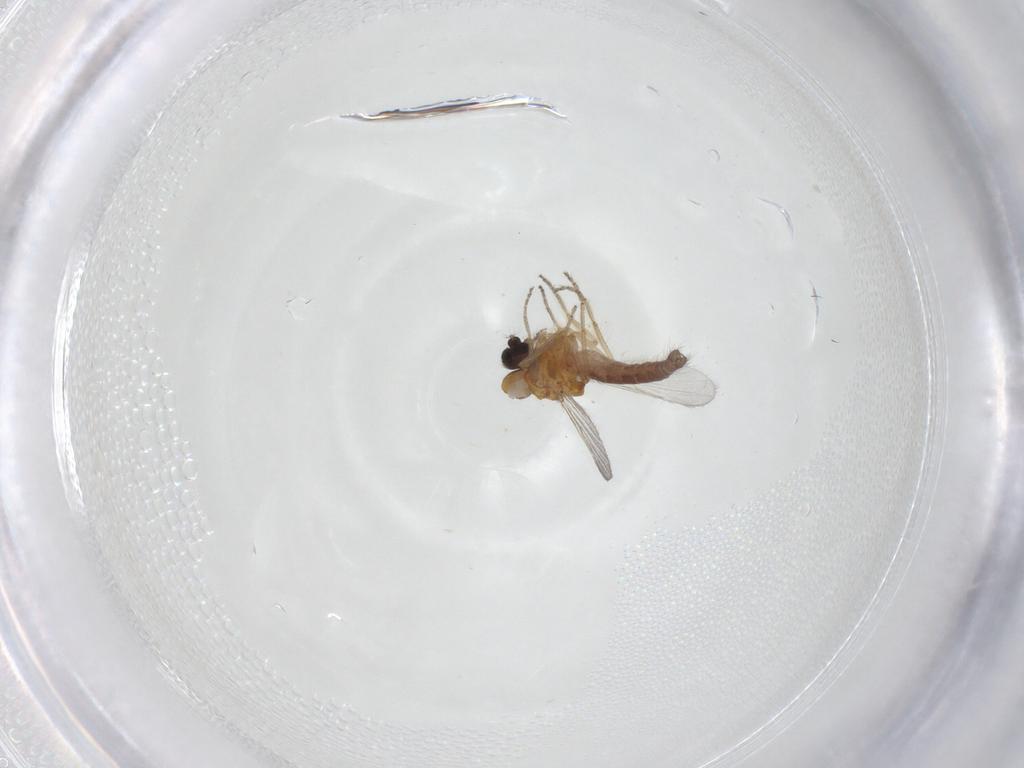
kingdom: Animalia
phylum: Arthropoda
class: Insecta
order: Diptera
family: Ceratopogonidae
